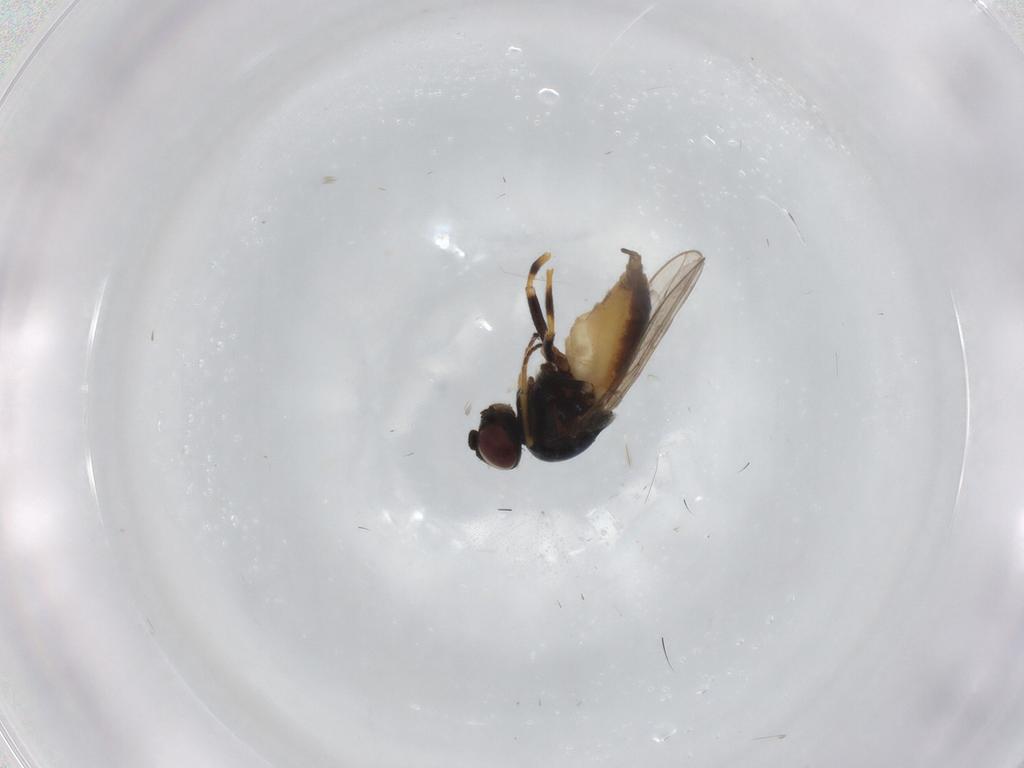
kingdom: Animalia
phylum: Arthropoda
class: Insecta
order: Diptera
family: Chloropidae
